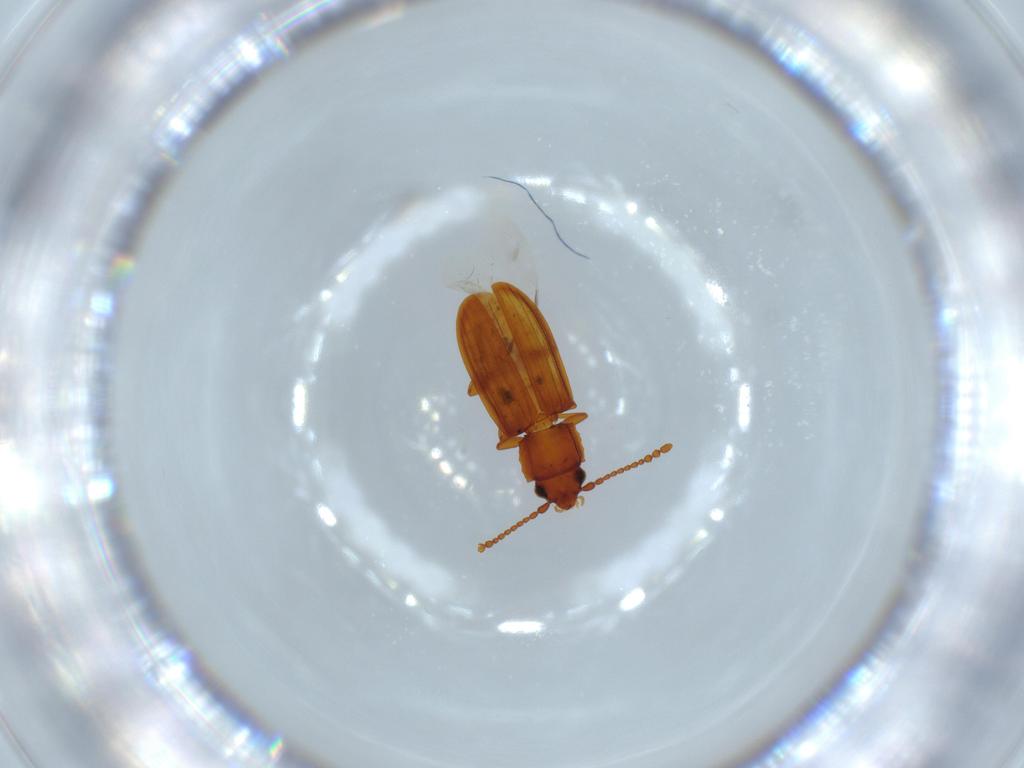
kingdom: Animalia
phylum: Arthropoda
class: Insecta
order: Coleoptera
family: Laemophloeidae
